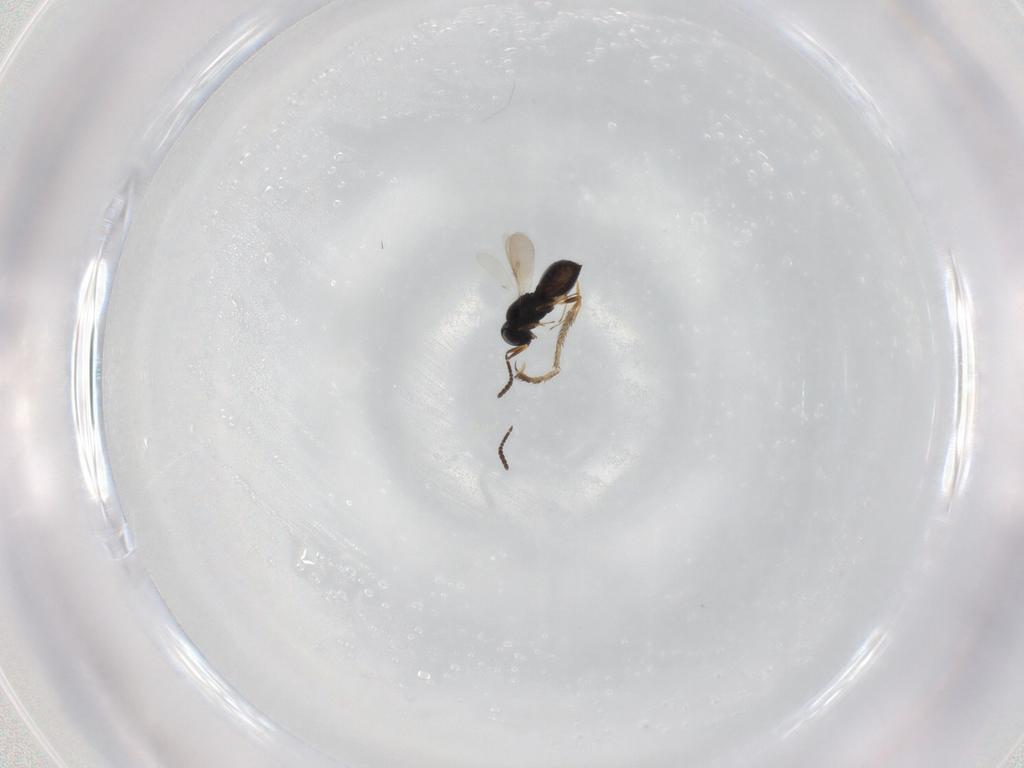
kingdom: Animalia
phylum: Arthropoda
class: Insecta
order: Hymenoptera
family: Scelionidae
